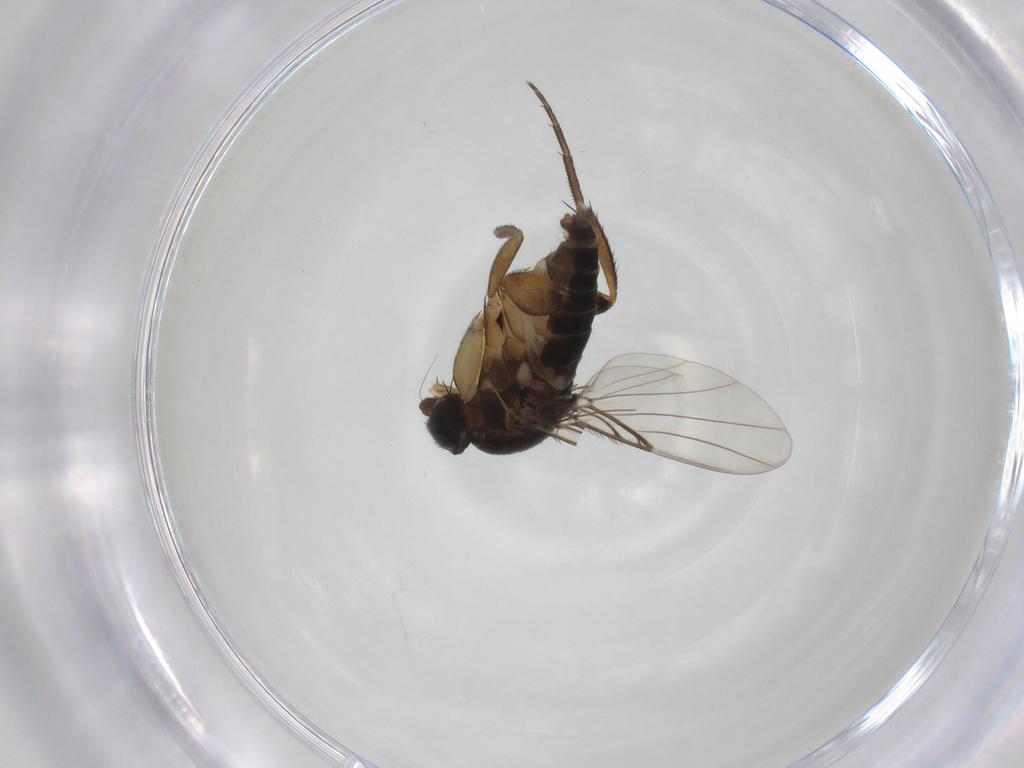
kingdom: Animalia
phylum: Arthropoda
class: Insecta
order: Diptera
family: Phoridae
